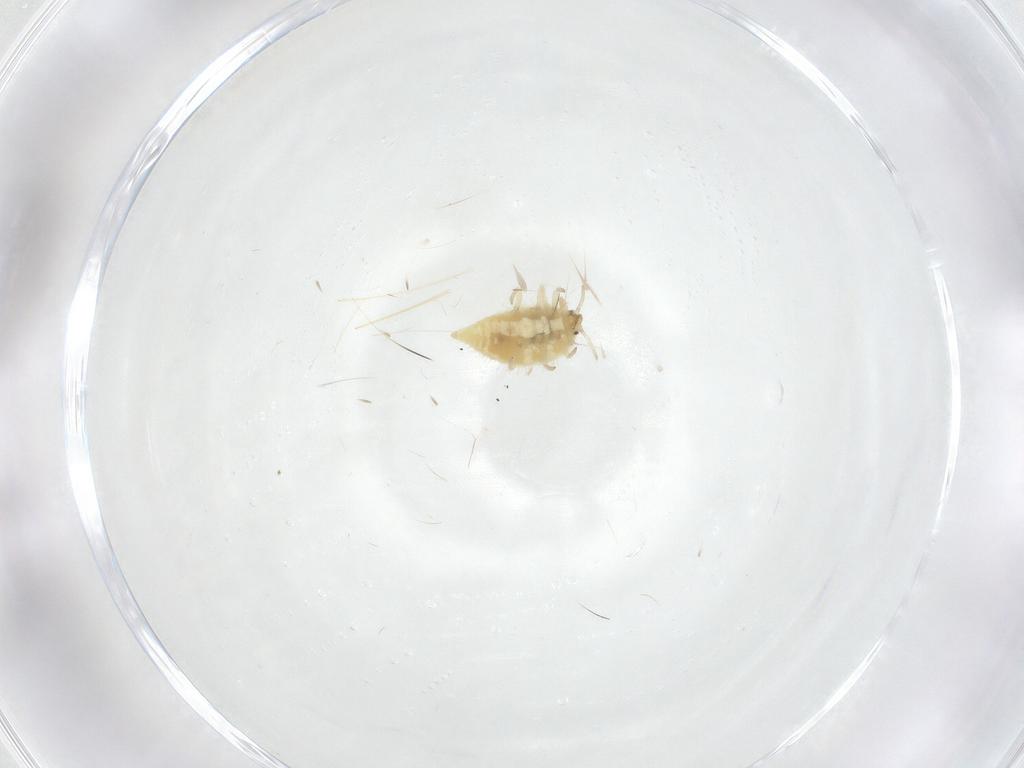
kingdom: Animalia
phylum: Arthropoda
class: Insecta
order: Neuroptera
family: Coniopterygidae
